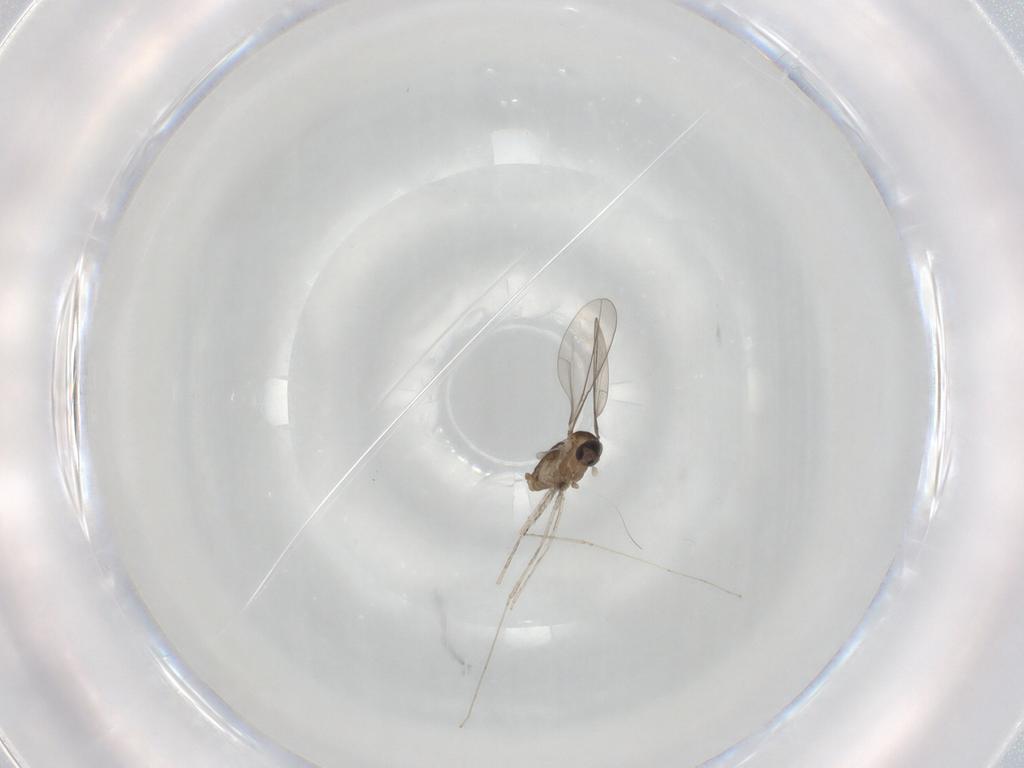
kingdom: Animalia
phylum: Arthropoda
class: Insecta
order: Diptera
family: Cecidomyiidae
